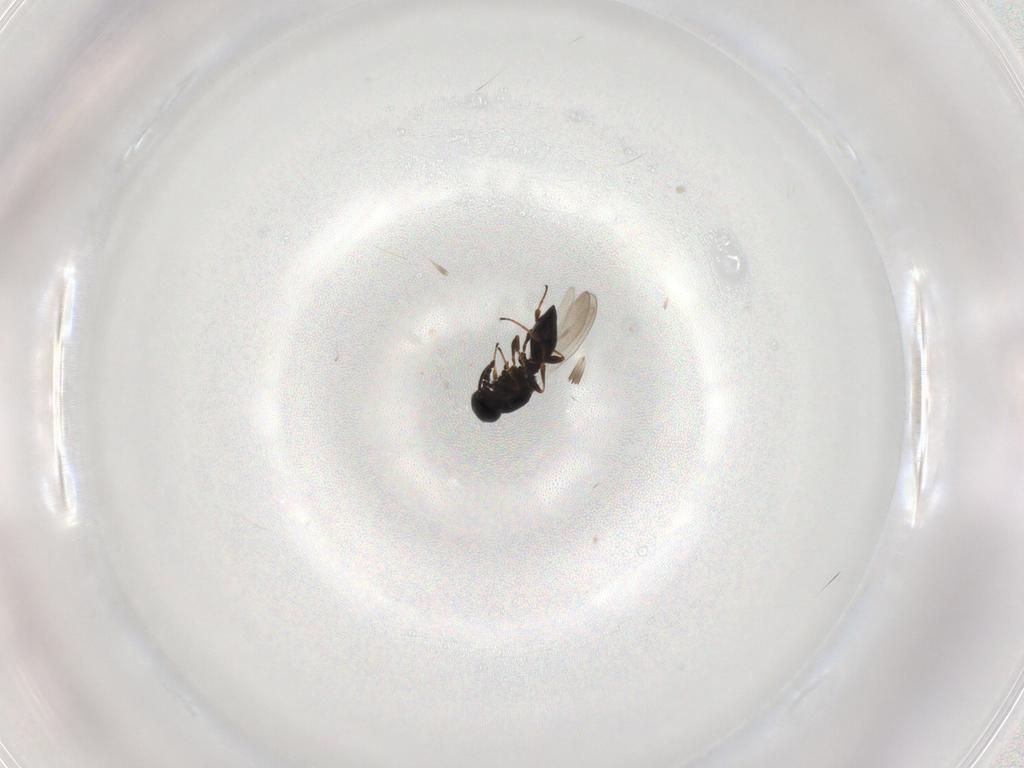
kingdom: Animalia
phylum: Arthropoda
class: Insecta
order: Hymenoptera
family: Platygastridae
